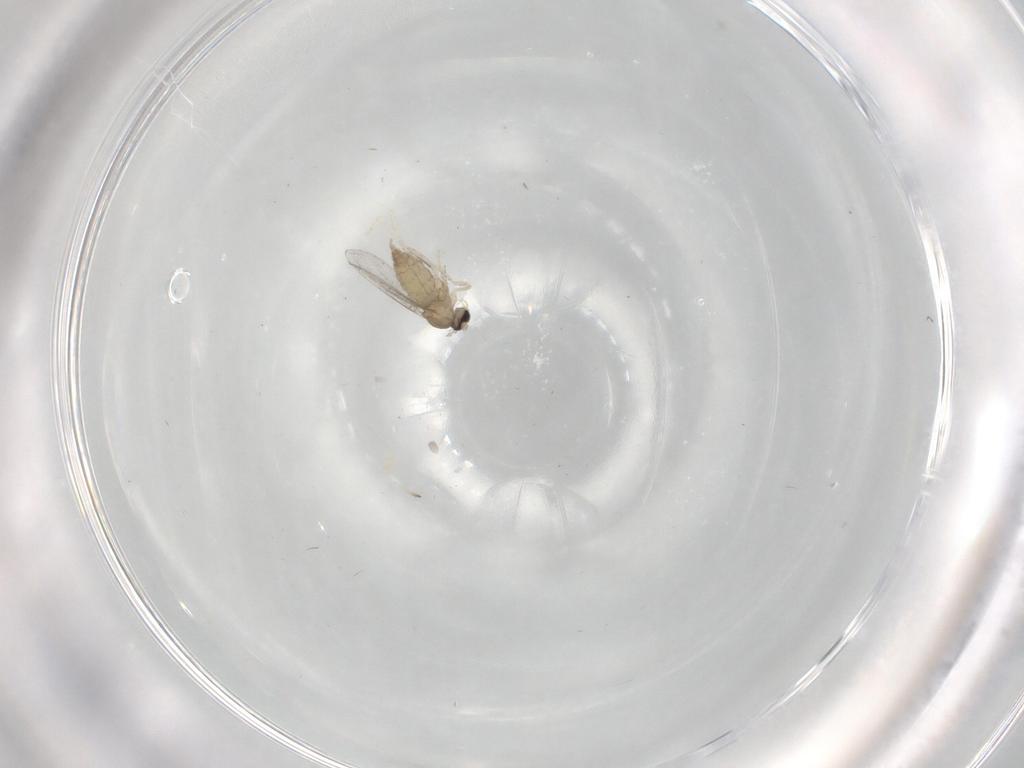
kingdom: Animalia
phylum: Arthropoda
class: Insecta
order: Diptera
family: Cecidomyiidae
